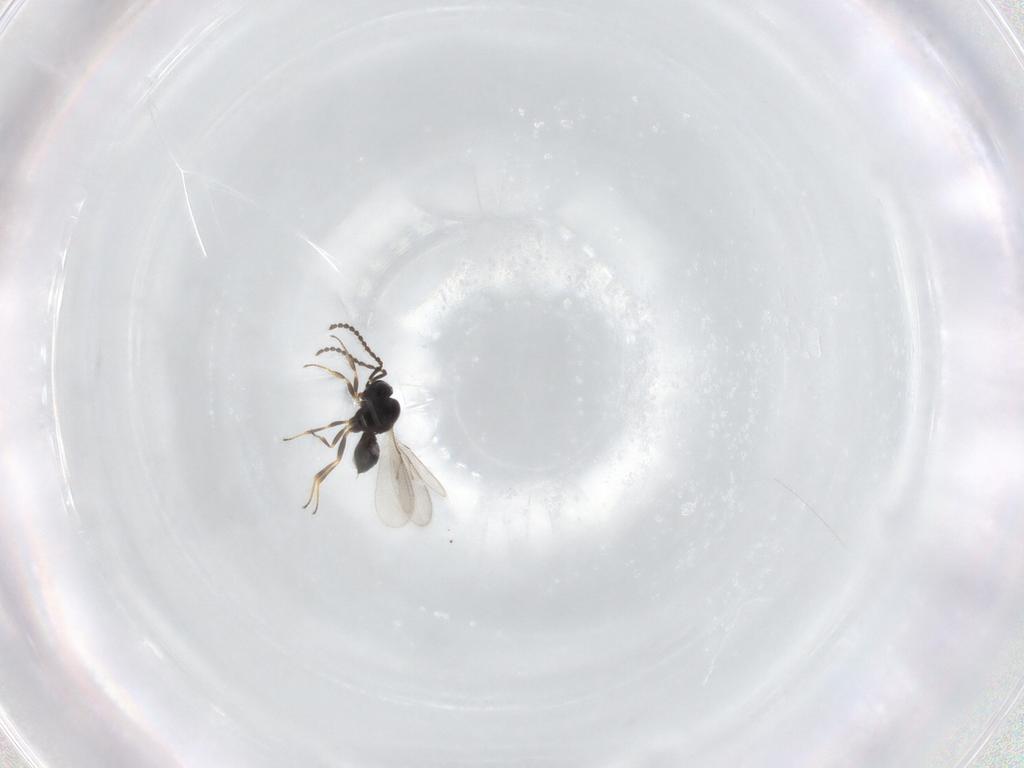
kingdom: Animalia
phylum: Arthropoda
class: Insecta
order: Hymenoptera
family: Scelionidae
